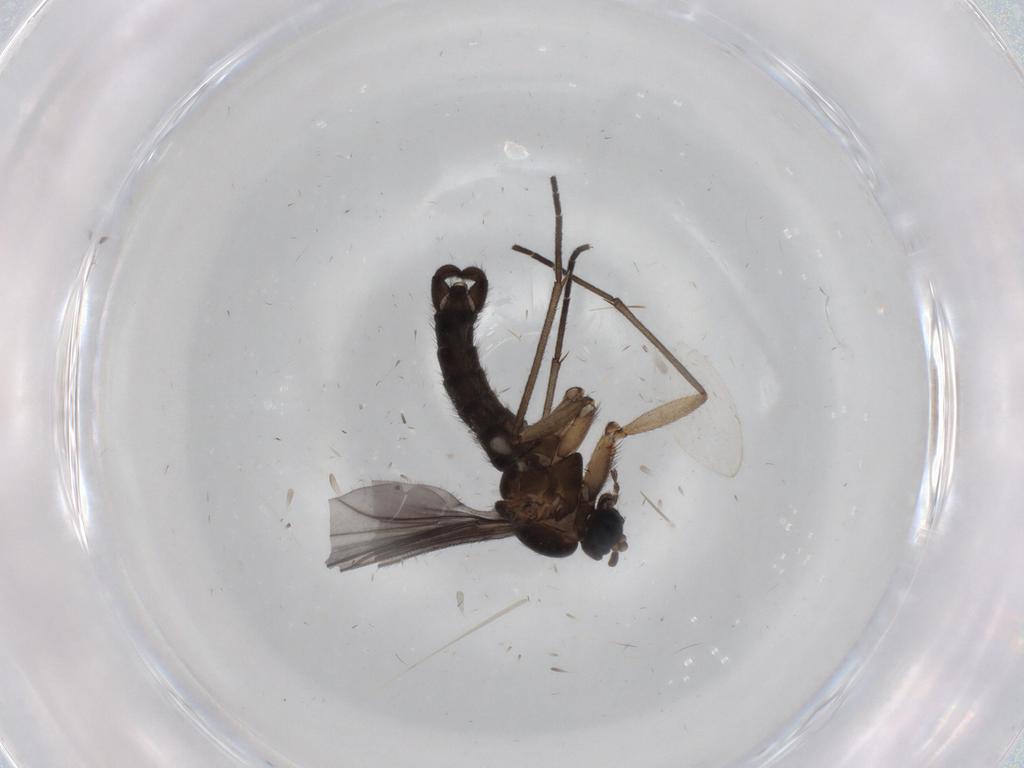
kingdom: Animalia
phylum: Arthropoda
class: Insecta
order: Diptera
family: Sciaridae
